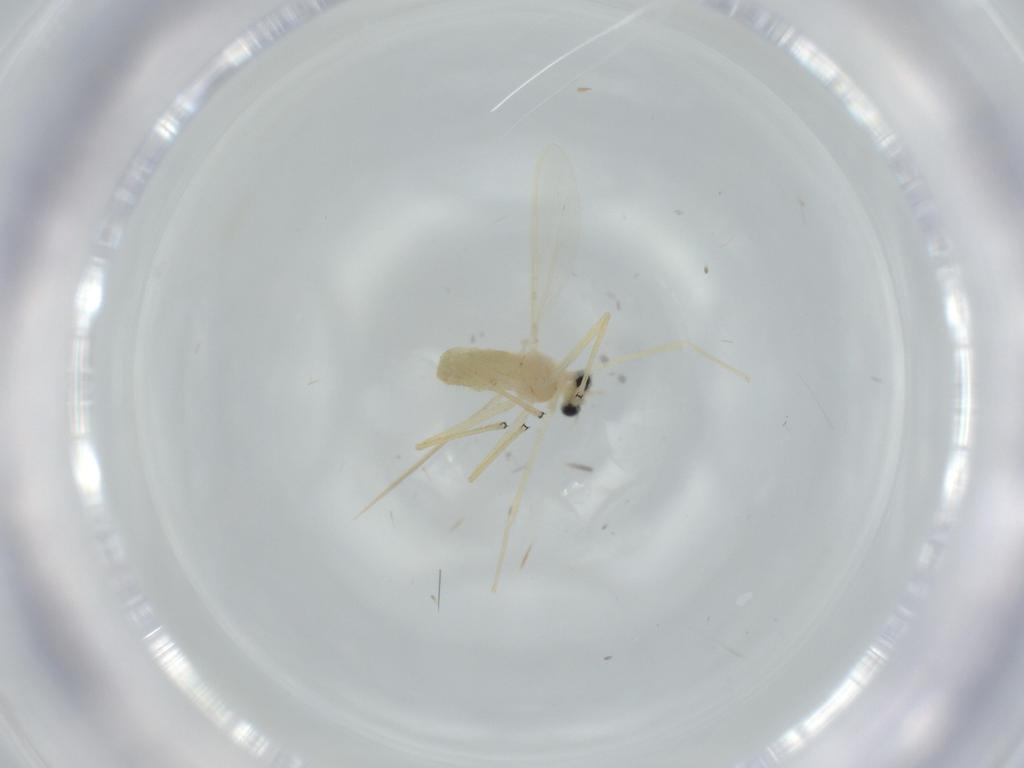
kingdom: Animalia
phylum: Arthropoda
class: Insecta
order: Diptera
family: Chironomidae
